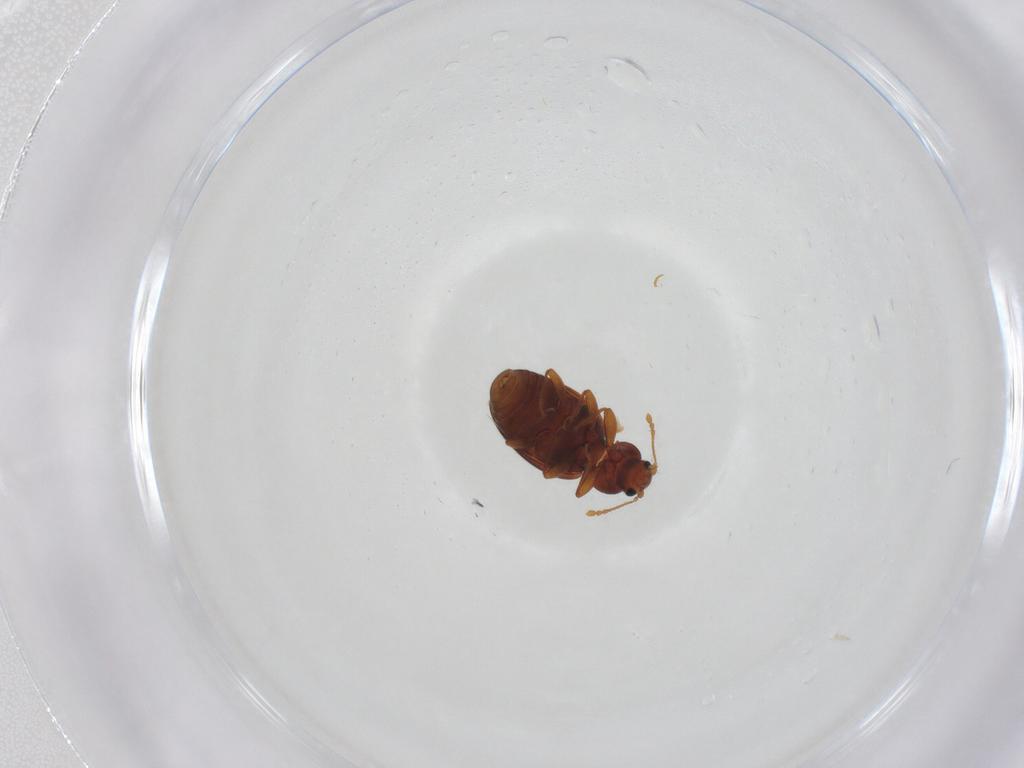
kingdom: Animalia
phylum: Arthropoda
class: Insecta
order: Coleoptera
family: Latridiidae
